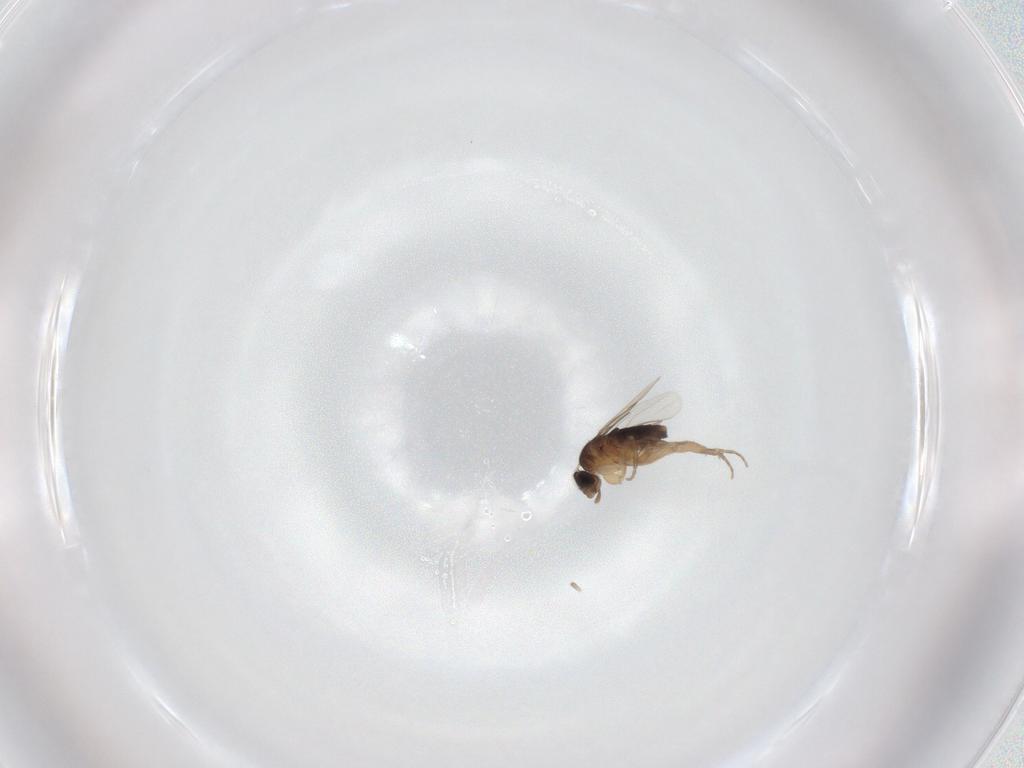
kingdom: Animalia
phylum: Arthropoda
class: Insecta
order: Diptera
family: Phoridae
